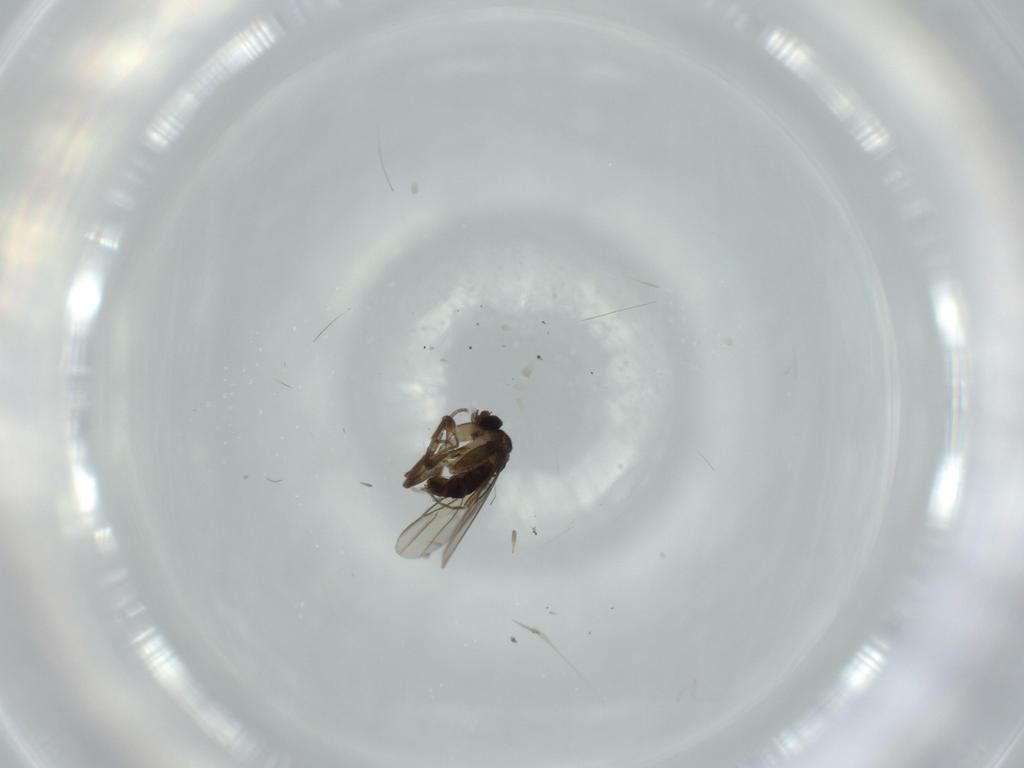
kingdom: Animalia
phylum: Arthropoda
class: Insecta
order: Diptera
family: Phoridae
